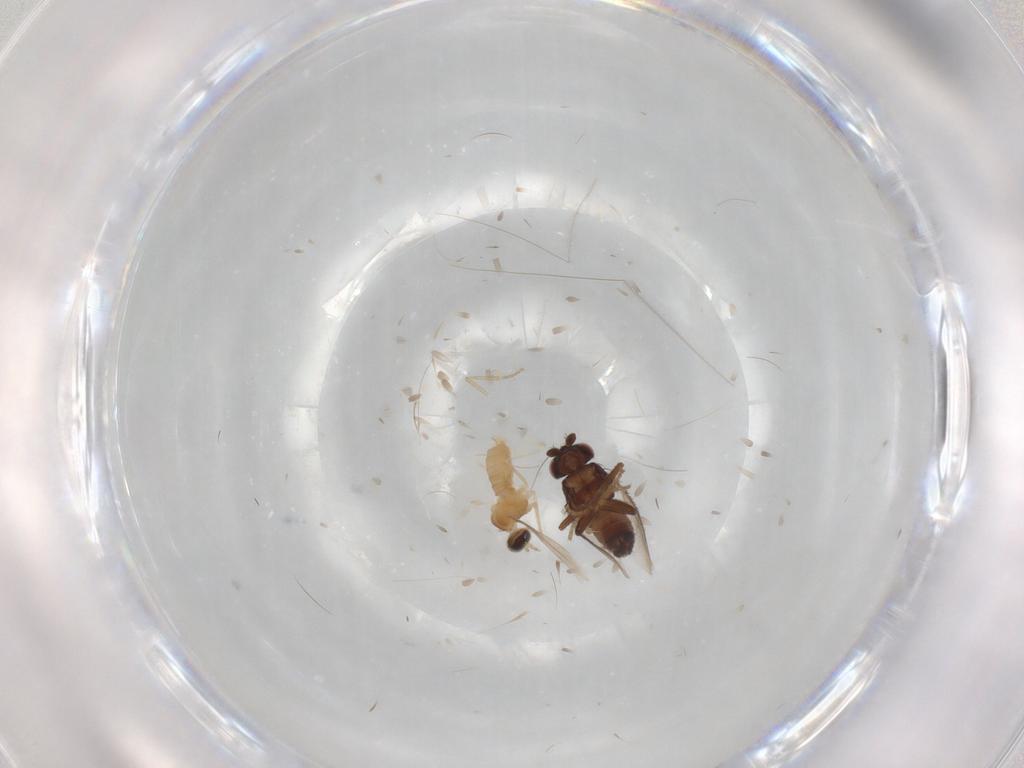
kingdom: Animalia
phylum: Arthropoda
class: Insecta
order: Diptera
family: Cecidomyiidae
